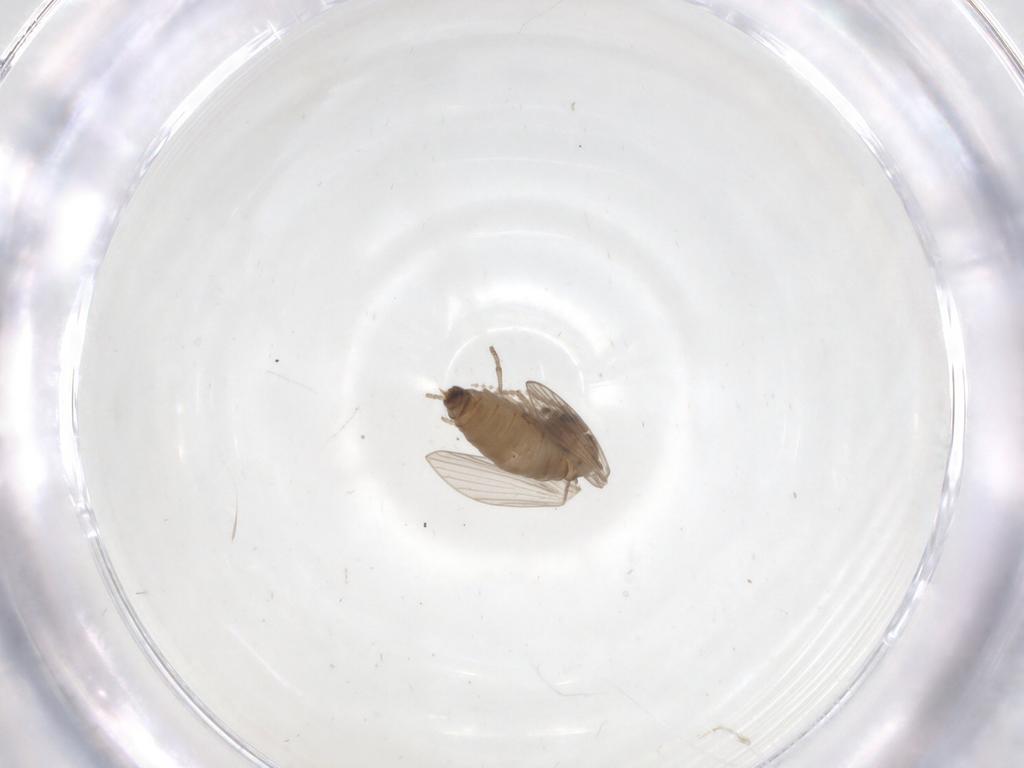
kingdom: Animalia
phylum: Arthropoda
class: Insecta
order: Diptera
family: Psychodidae
